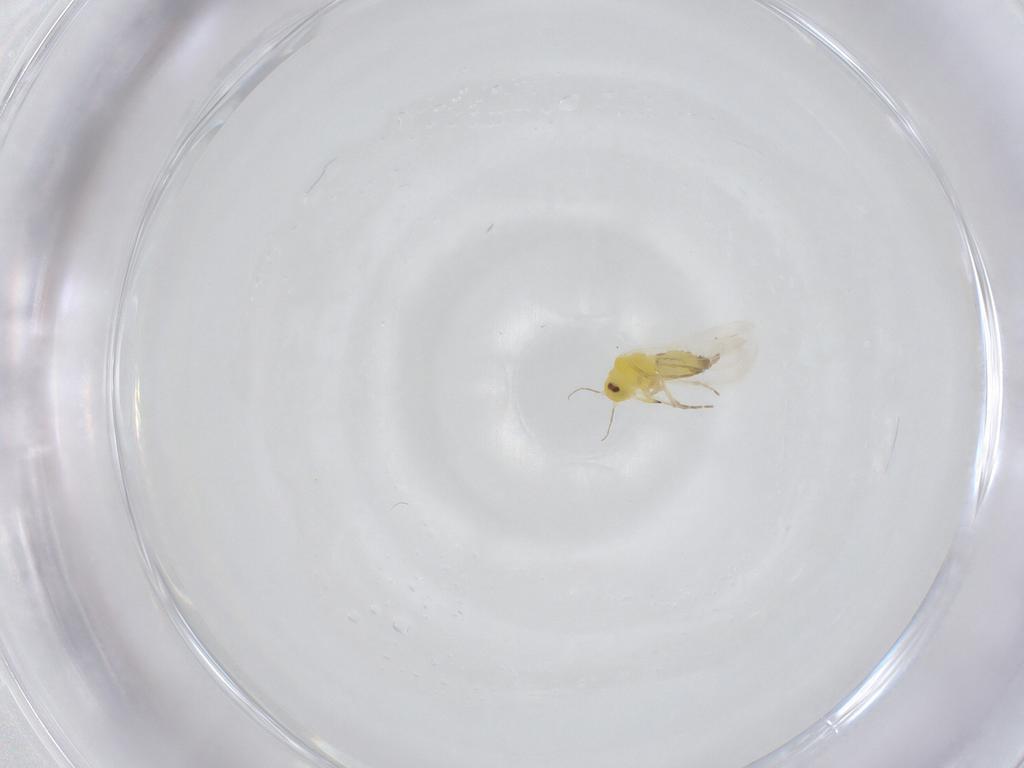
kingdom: Animalia
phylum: Arthropoda
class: Insecta
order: Hemiptera
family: Aleyrodidae
